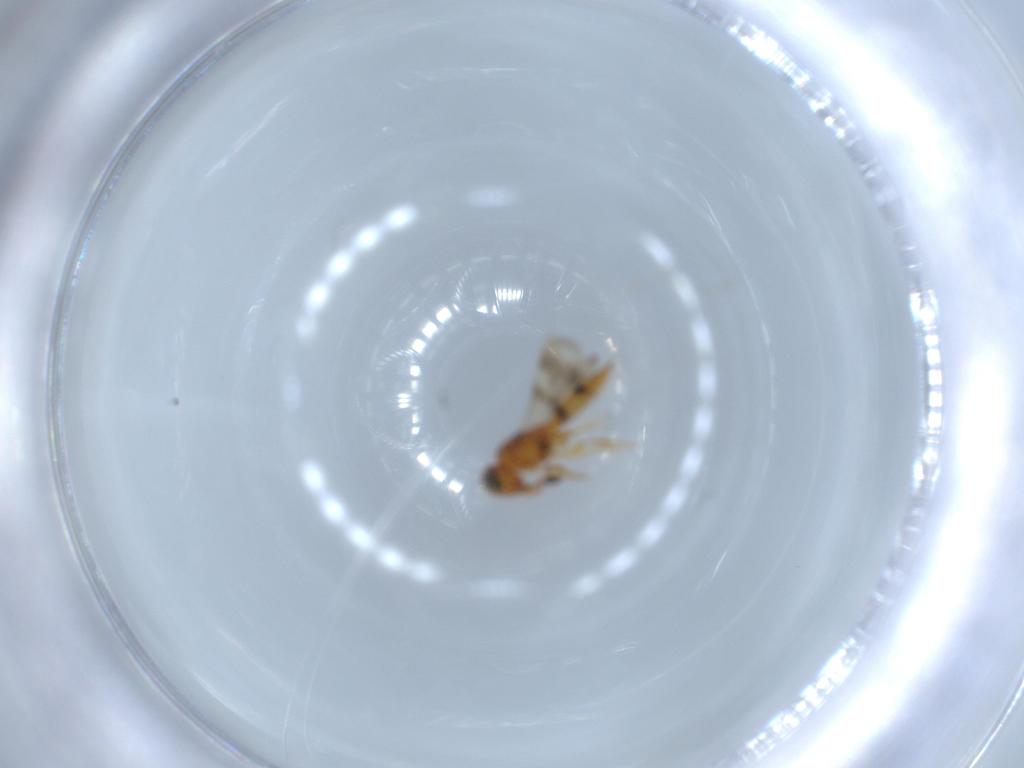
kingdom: Animalia
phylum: Arthropoda
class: Insecta
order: Hymenoptera
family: Scelionidae
